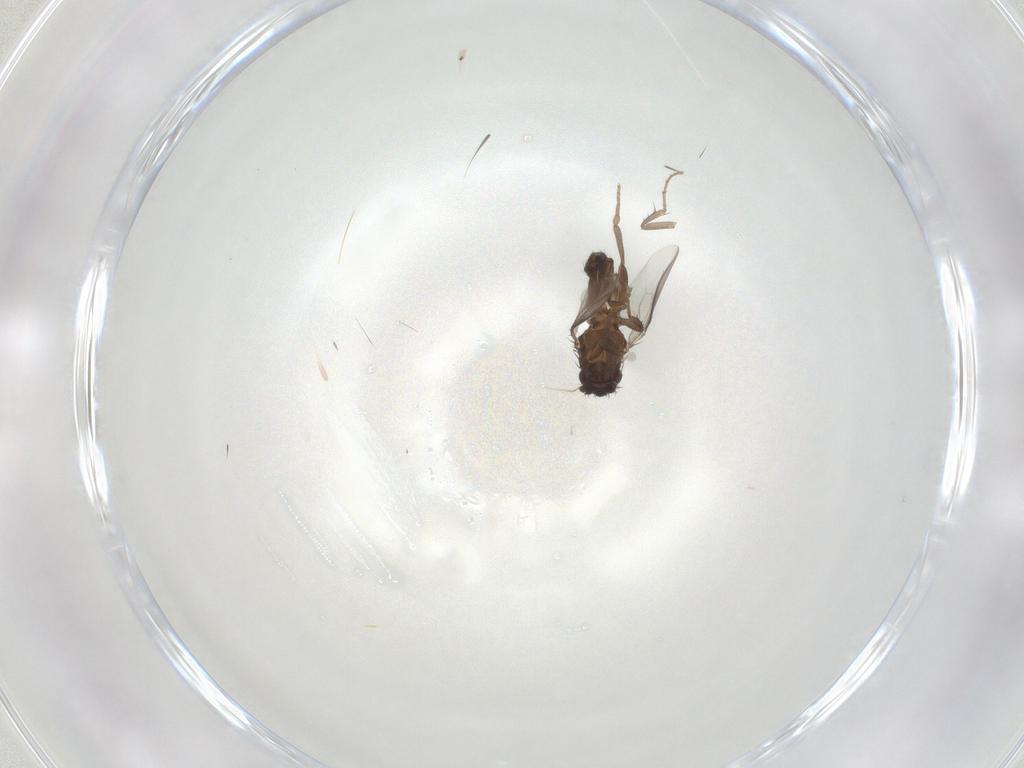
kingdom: Animalia
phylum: Arthropoda
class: Insecta
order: Diptera
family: Sphaeroceridae
